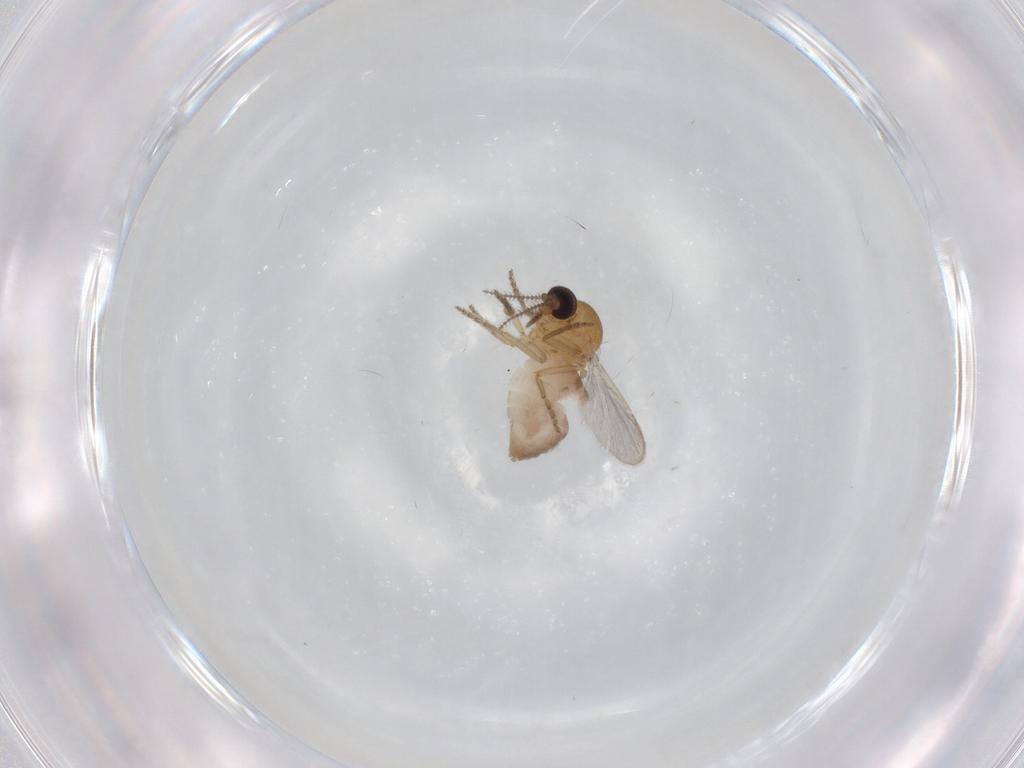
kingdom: Animalia
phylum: Arthropoda
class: Insecta
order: Diptera
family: Ceratopogonidae
